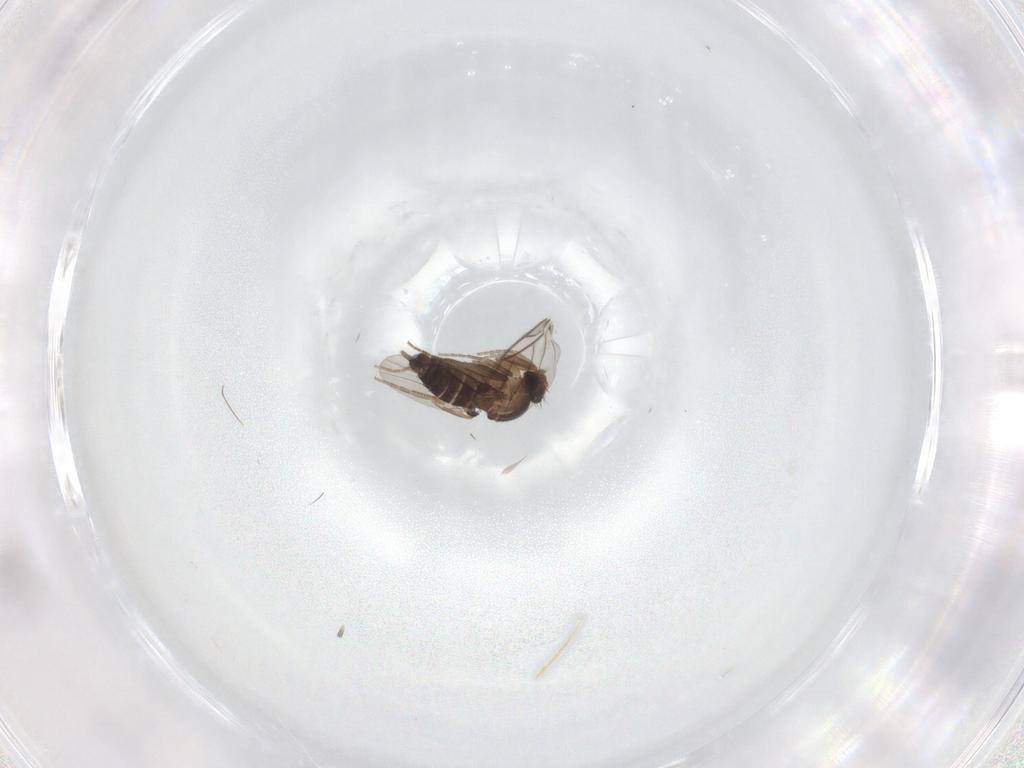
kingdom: Animalia
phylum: Arthropoda
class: Insecta
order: Diptera
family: Phoridae
